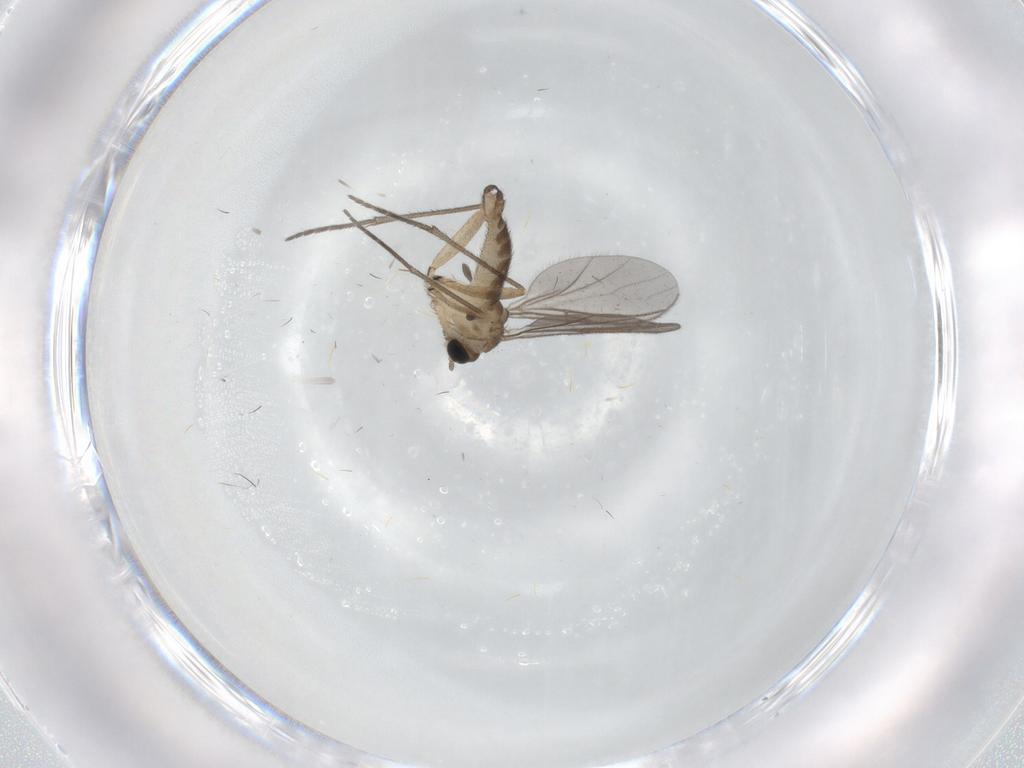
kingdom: Animalia
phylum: Arthropoda
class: Insecta
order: Diptera
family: Sciaridae
